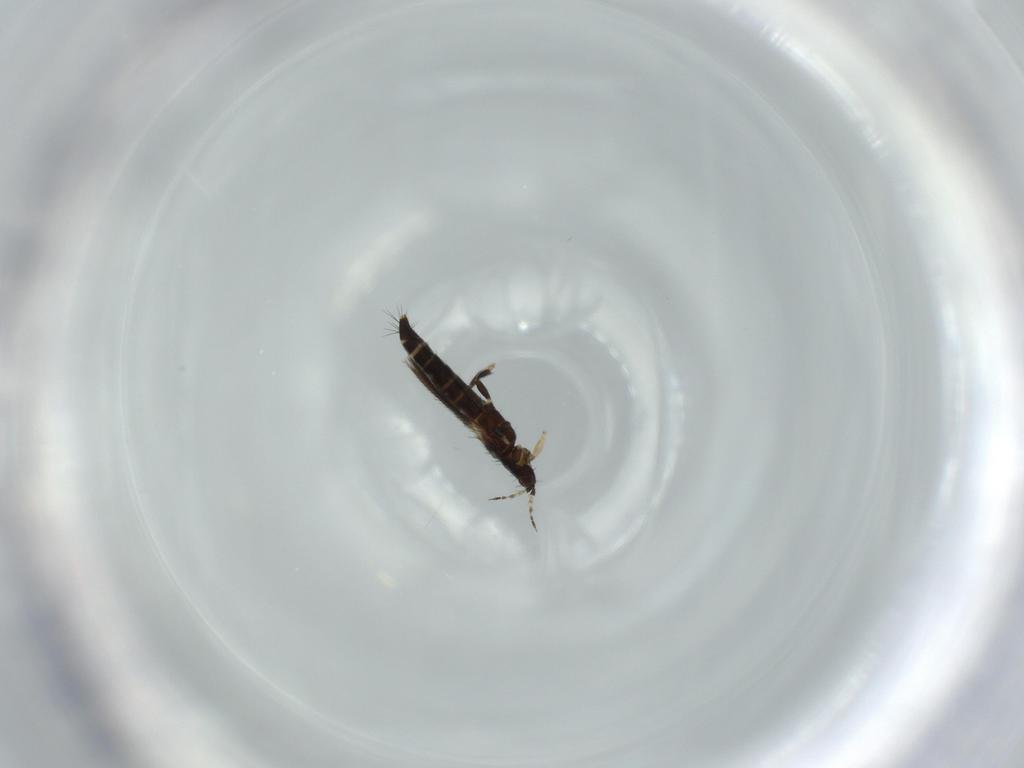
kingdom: Animalia
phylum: Arthropoda
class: Insecta
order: Thysanoptera
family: Thripidae
